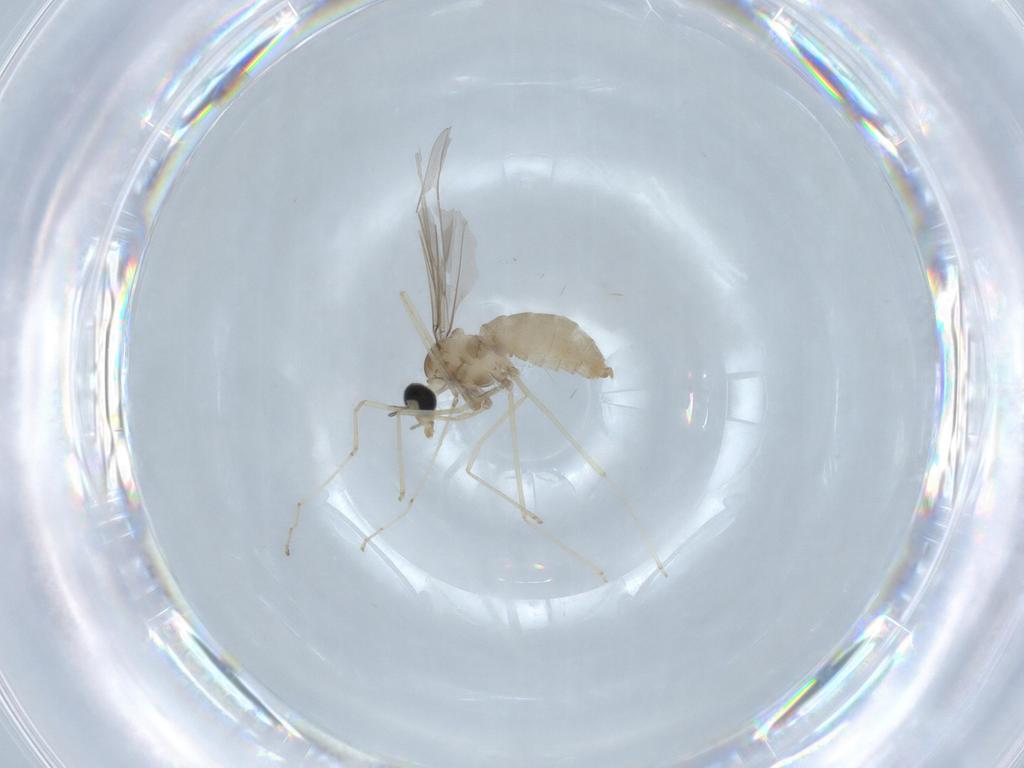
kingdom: Animalia
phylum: Arthropoda
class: Insecta
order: Diptera
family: Cecidomyiidae
